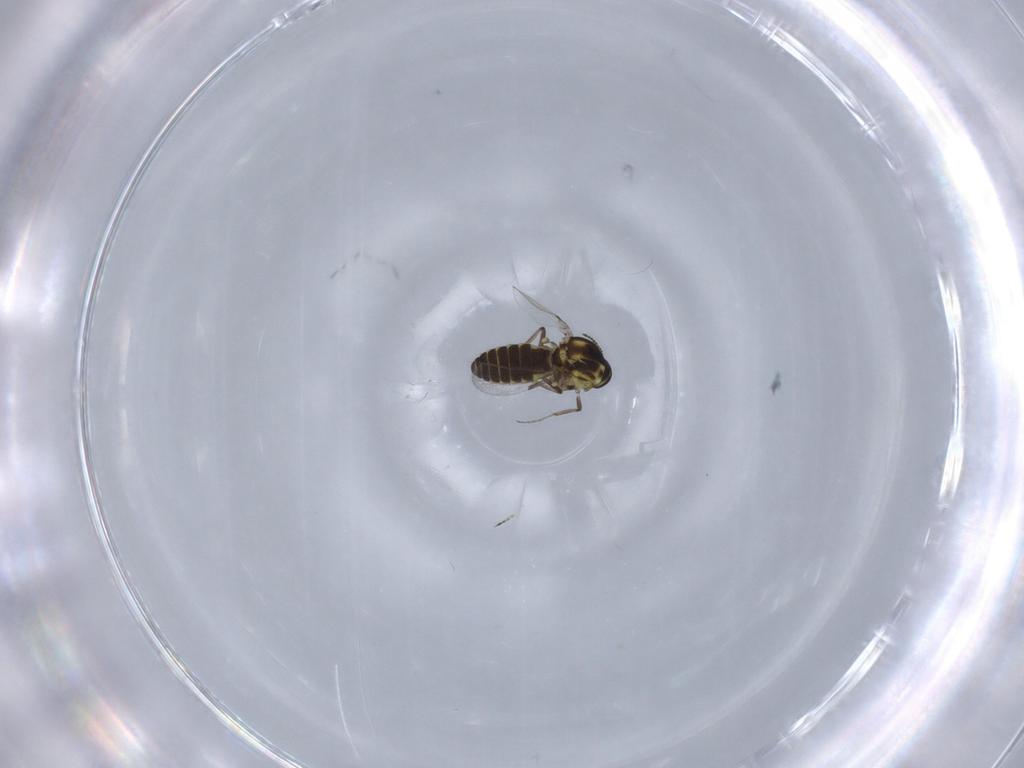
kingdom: Animalia
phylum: Arthropoda
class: Insecta
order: Diptera
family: Ceratopogonidae
